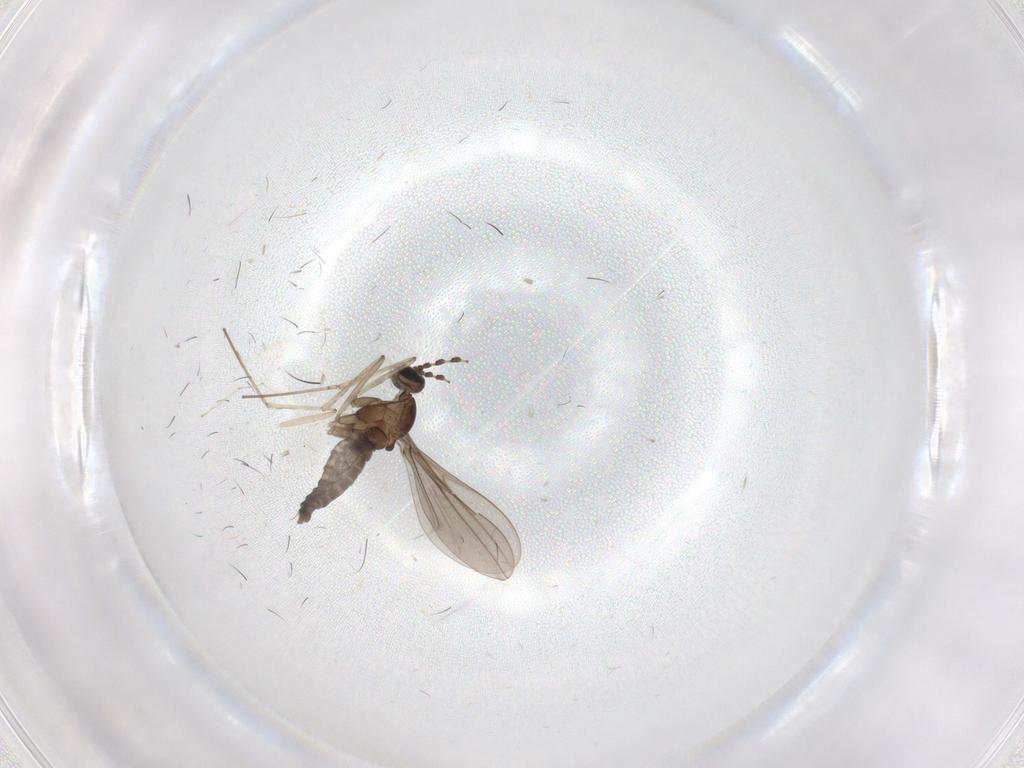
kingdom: Animalia
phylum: Arthropoda
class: Insecta
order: Diptera
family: Cecidomyiidae
